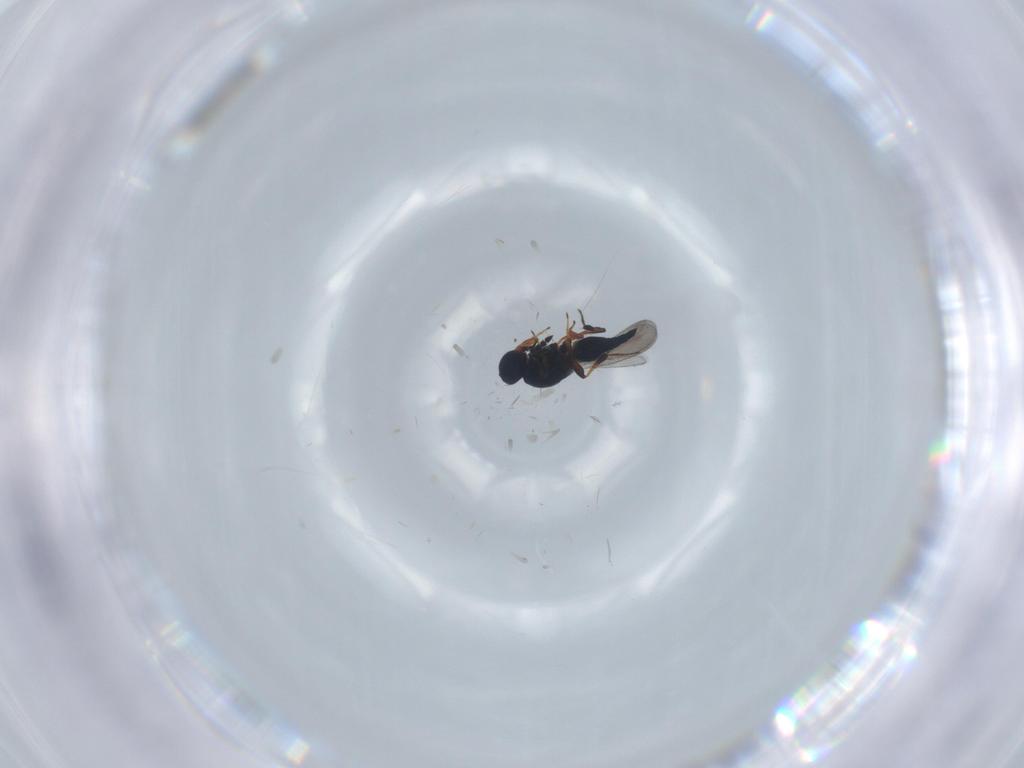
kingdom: Animalia
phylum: Arthropoda
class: Insecta
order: Hymenoptera
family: Platygastridae
